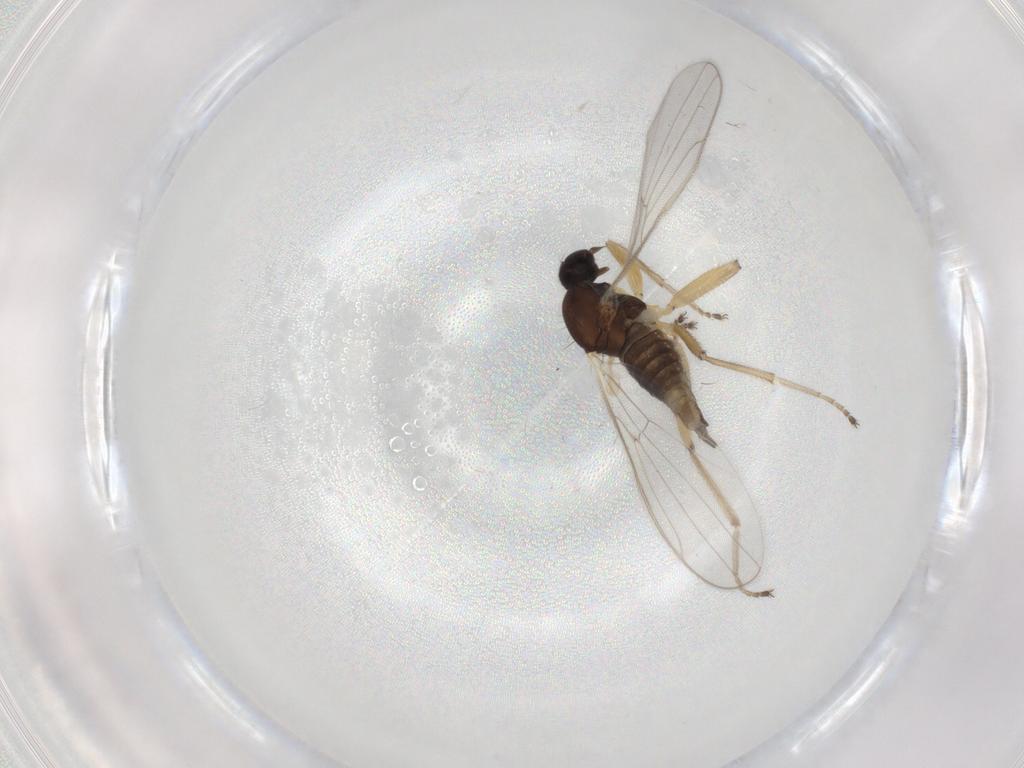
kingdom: Animalia
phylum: Arthropoda
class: Insecta
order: Diptera
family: Hybotidae
